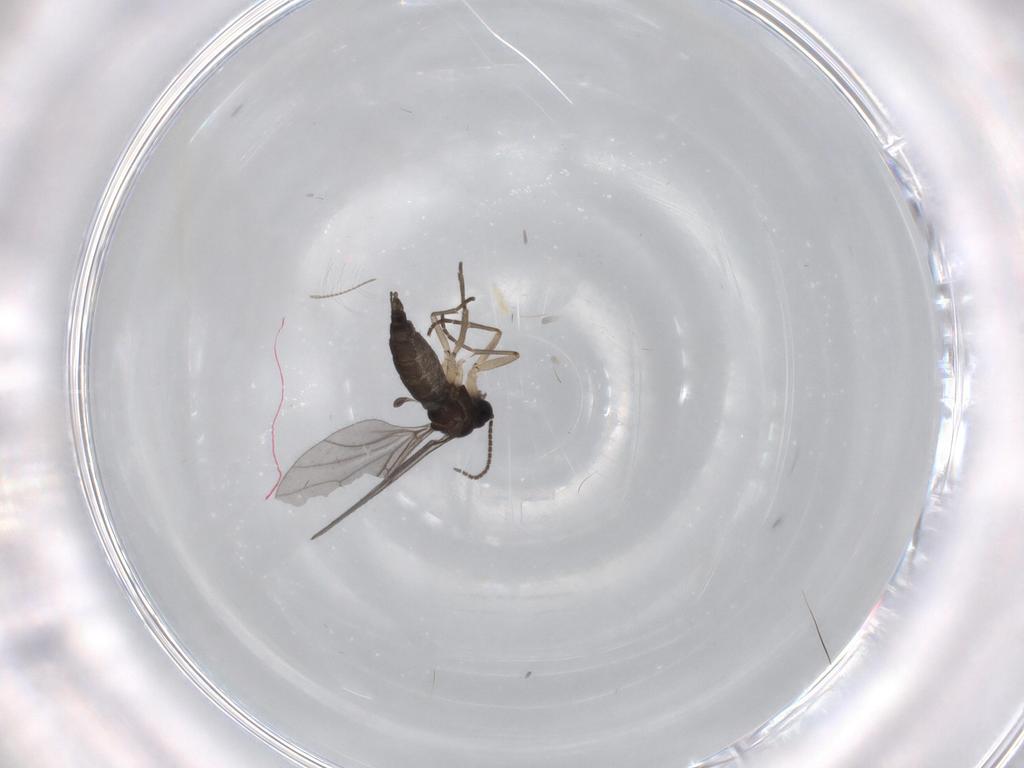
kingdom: Animalia
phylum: Arthropoda
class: Insecta
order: Diptera
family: Sciaridae
